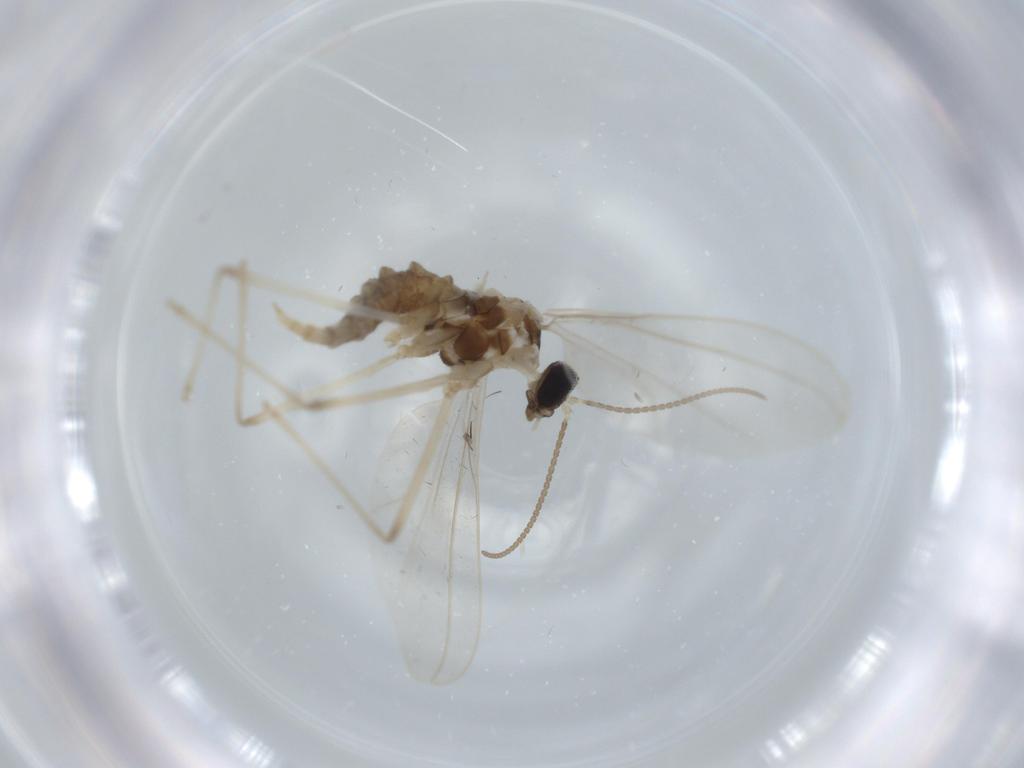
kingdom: Animalia
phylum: Arthropoda
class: Insecta
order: Diptera
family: Cecidomyiidae
